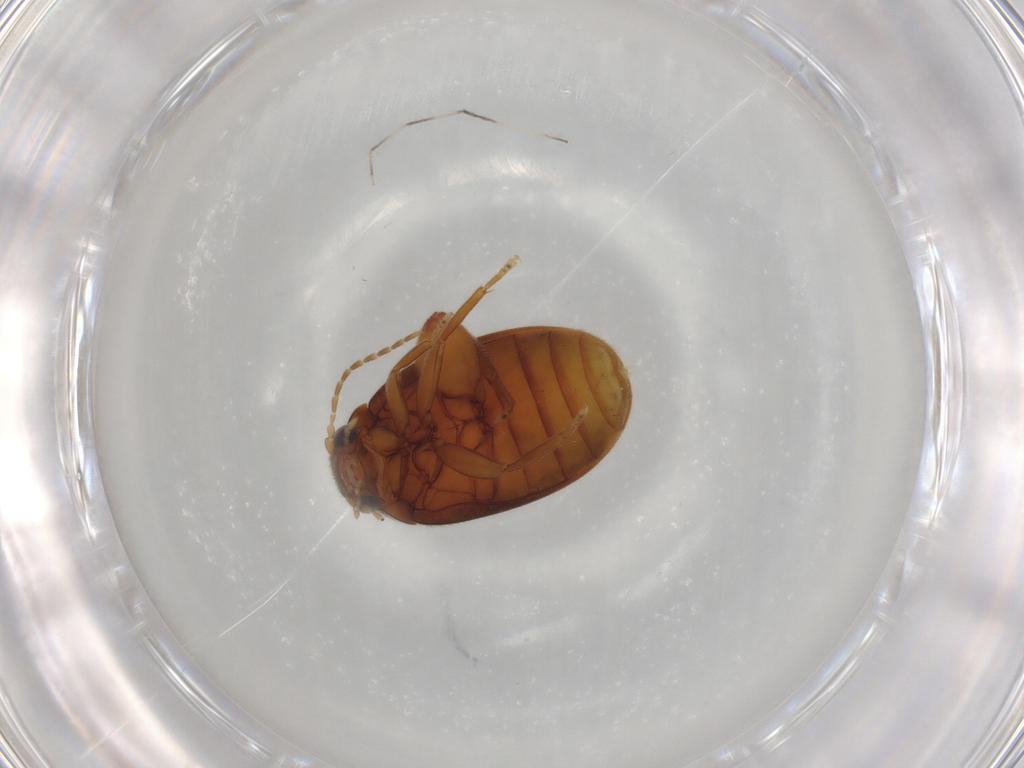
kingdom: Animalia
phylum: Arthropoda
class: Insecta
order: Coleoptera
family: Scirtidae
